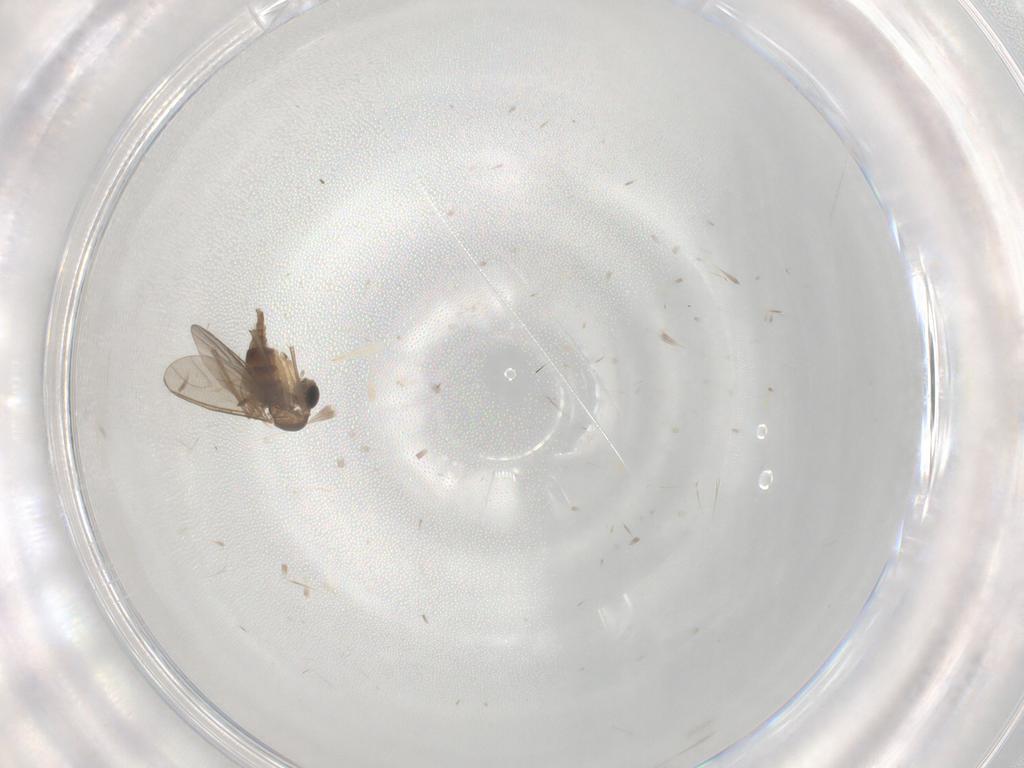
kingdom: Animalia
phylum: Arthropoda
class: Insecta
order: Diptera
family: Sciaridae
